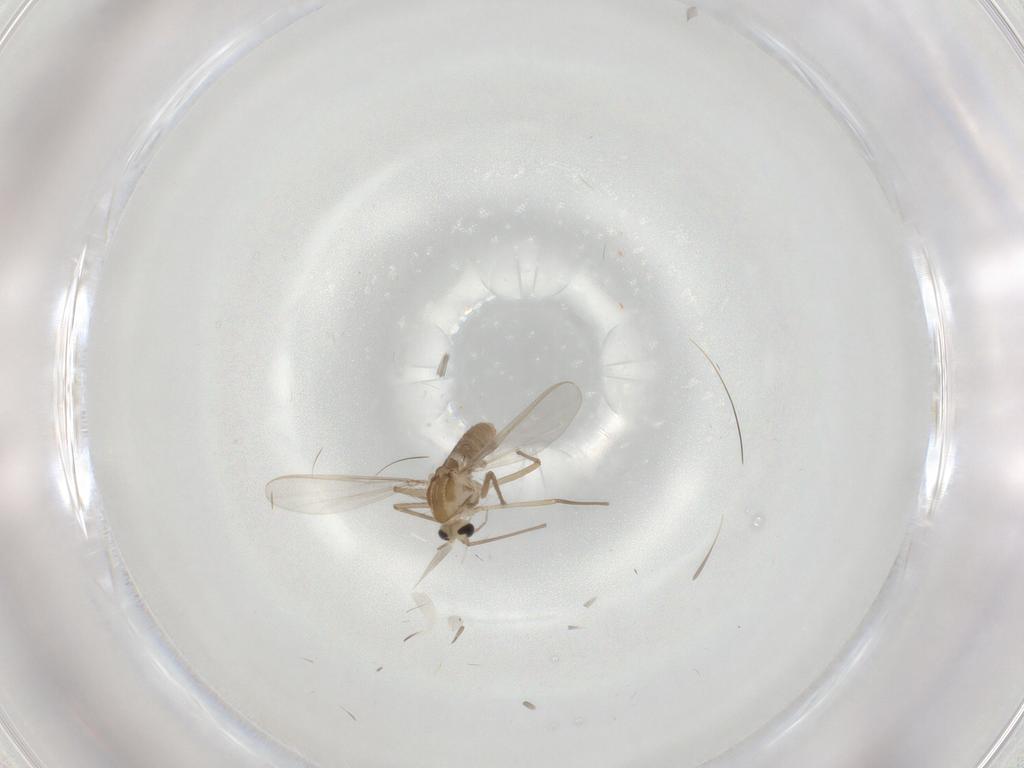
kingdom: Animalia
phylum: Arthropoda
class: Insecta
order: Diptera
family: Chironomidae
